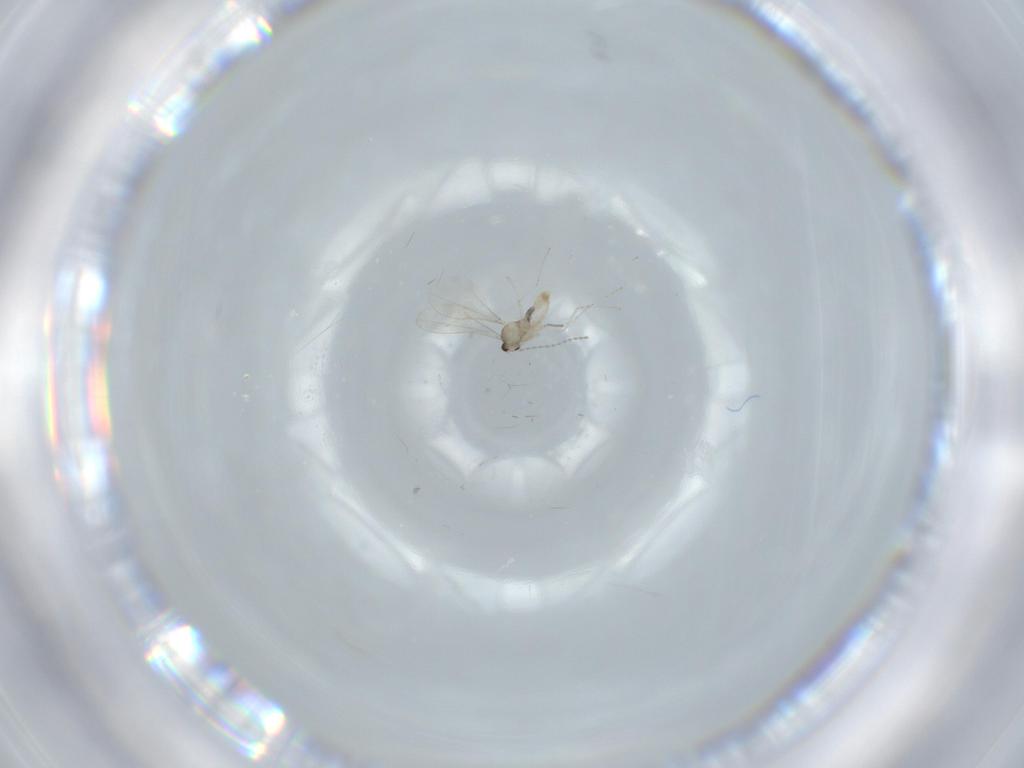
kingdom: Animalia
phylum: Arthropoda
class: Insecta
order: Diptera
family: Cecidomyiidae
